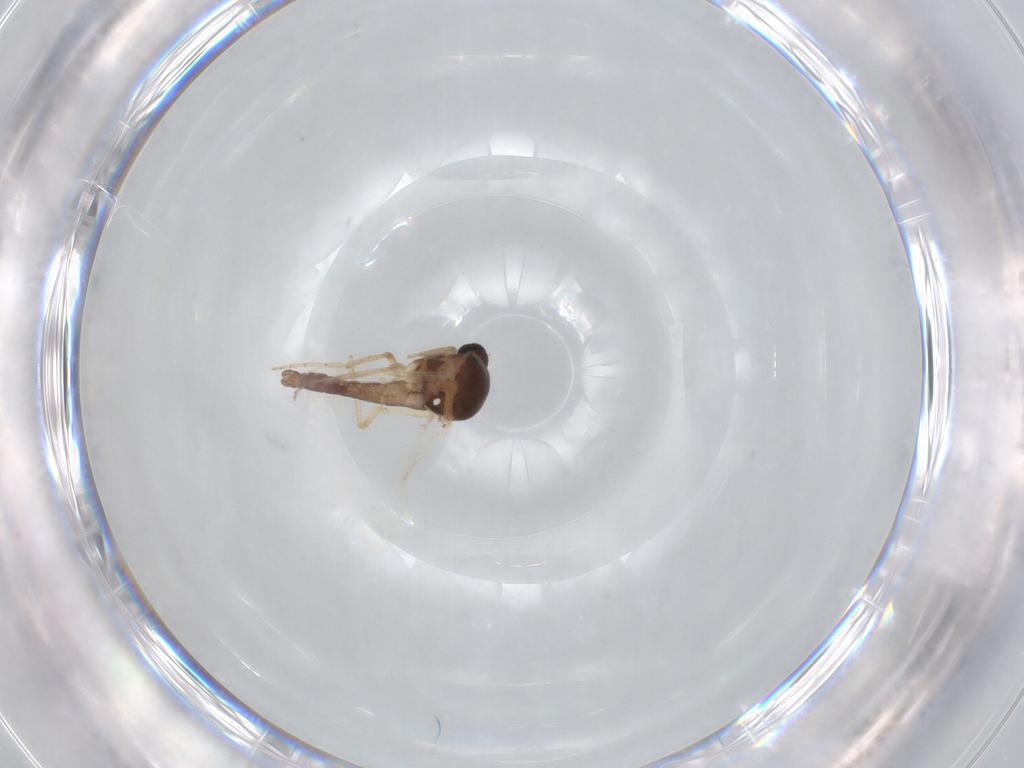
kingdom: Animalia
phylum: Arthropoda
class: Insecta
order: Diptera
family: Ceratopogonidae
